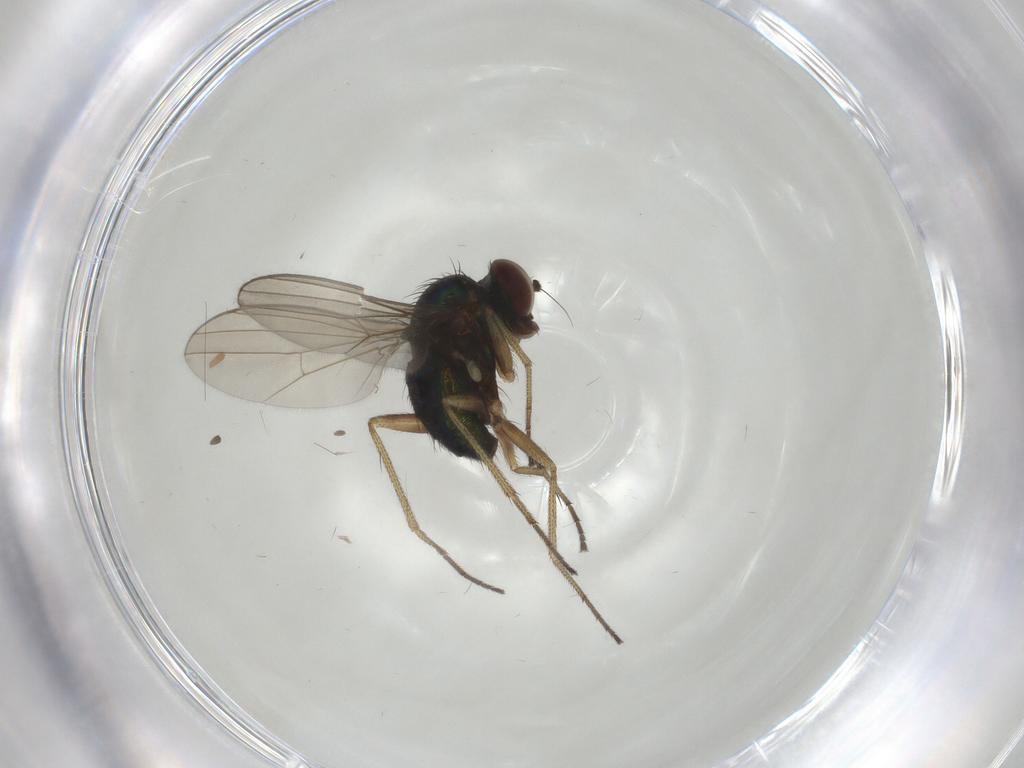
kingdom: Animalia
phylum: Arthropoda
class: Insecta
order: Diptera
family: Dolichopodidae
